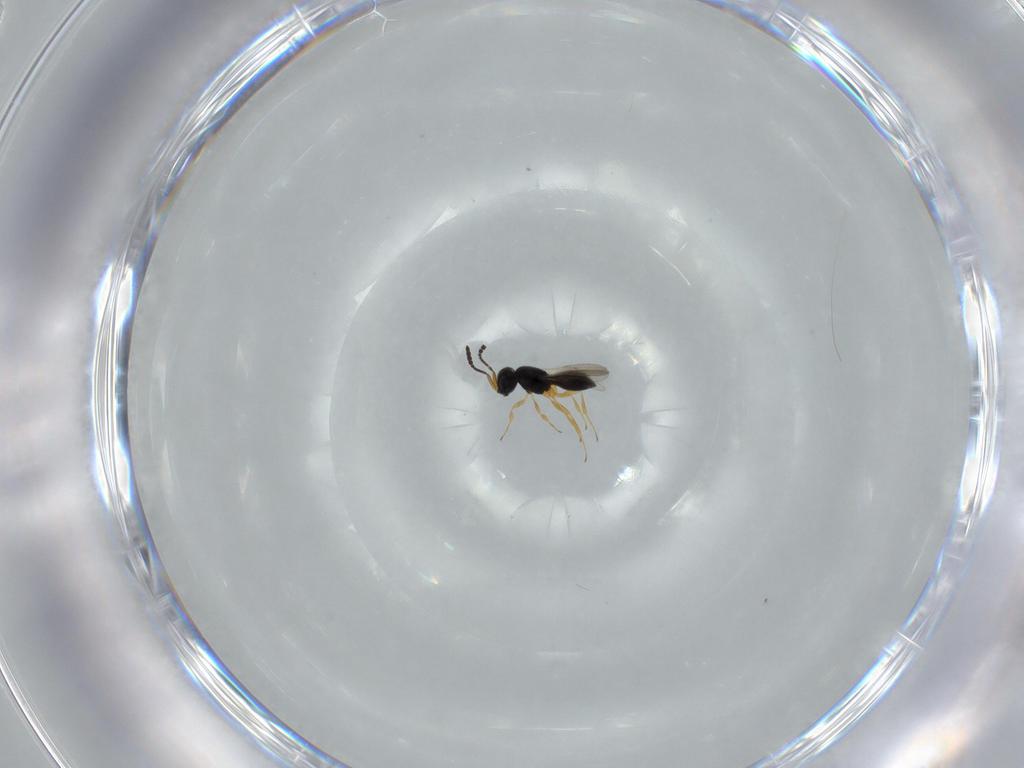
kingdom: Animalia
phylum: Arthropoda
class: Insecta
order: Hymenoptera
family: Scelionidae
